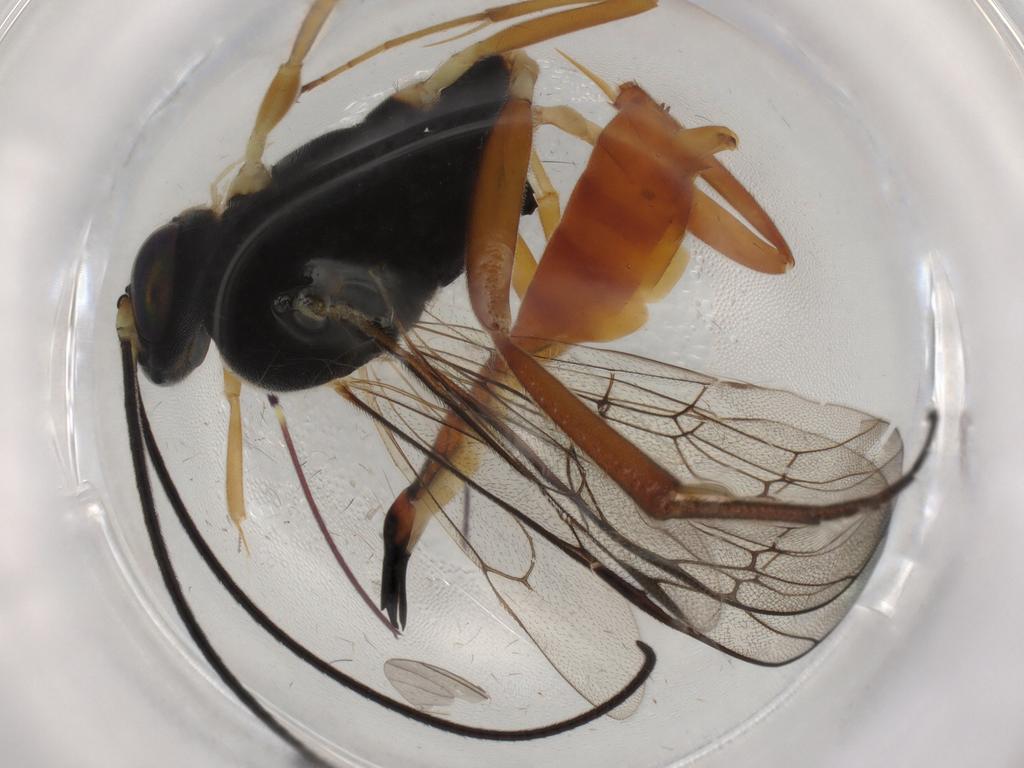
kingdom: Animalia
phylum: Arthropoda
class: Insecta
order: Hymenoptera
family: Ichneumonidae
